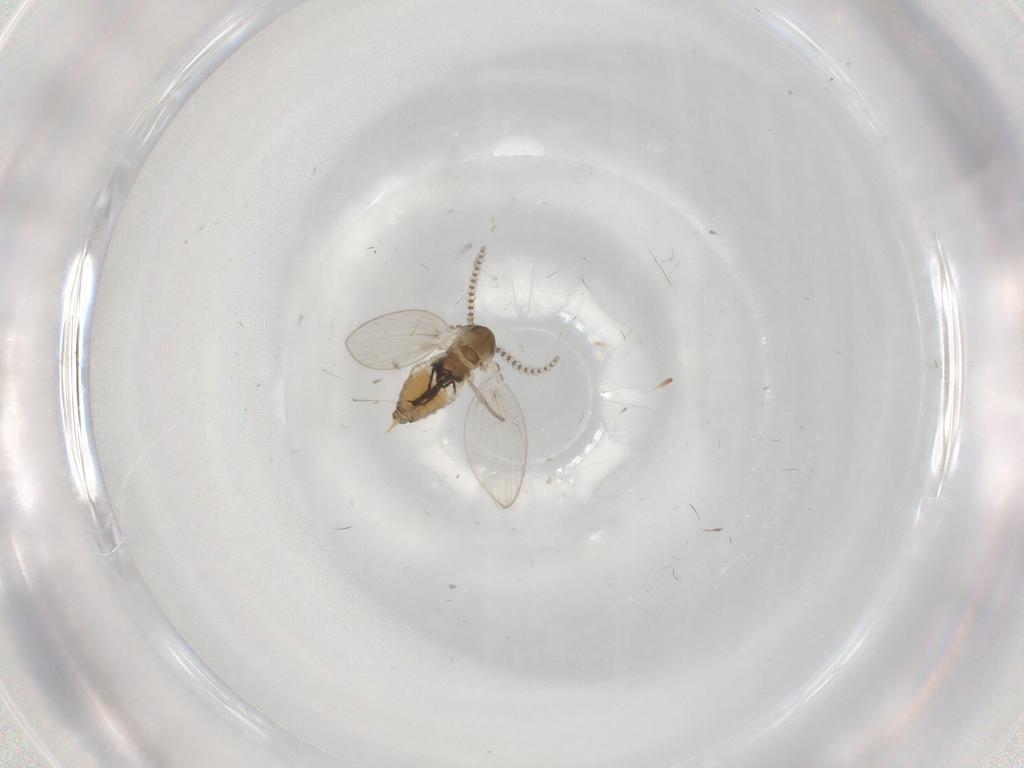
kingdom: Animalia
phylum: Arthropoda
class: Insecta
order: Diptera
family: Psychodidae
